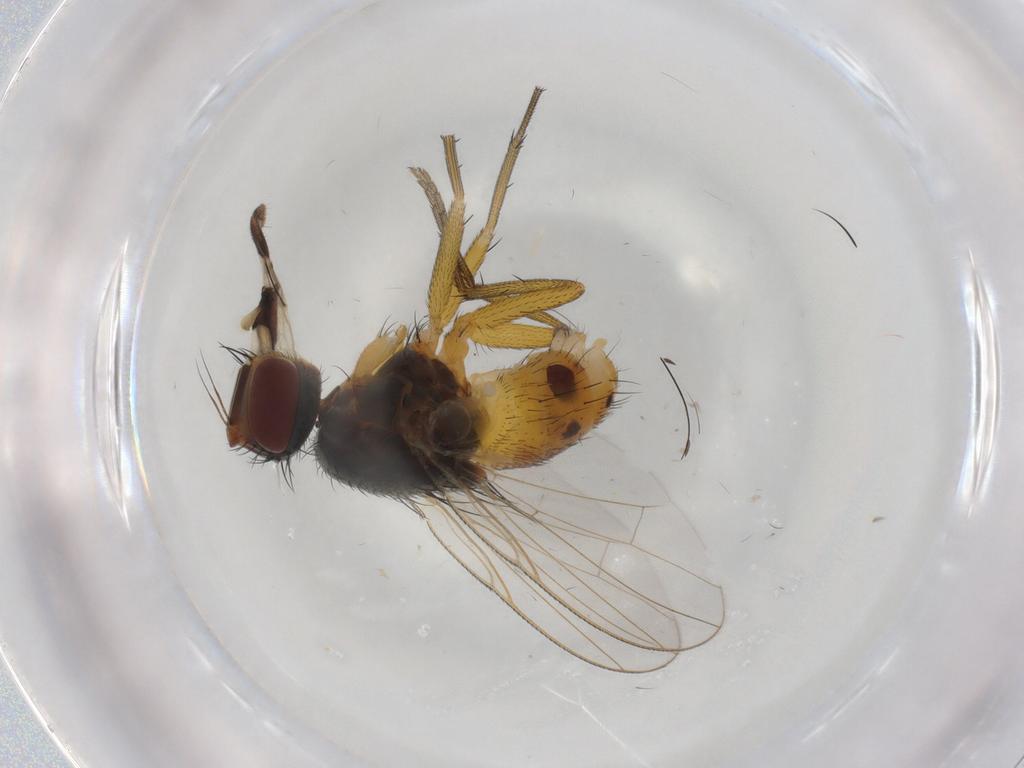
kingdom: Animalia
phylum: Arthropoda
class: Insecta
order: Diptera
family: Muscidae
